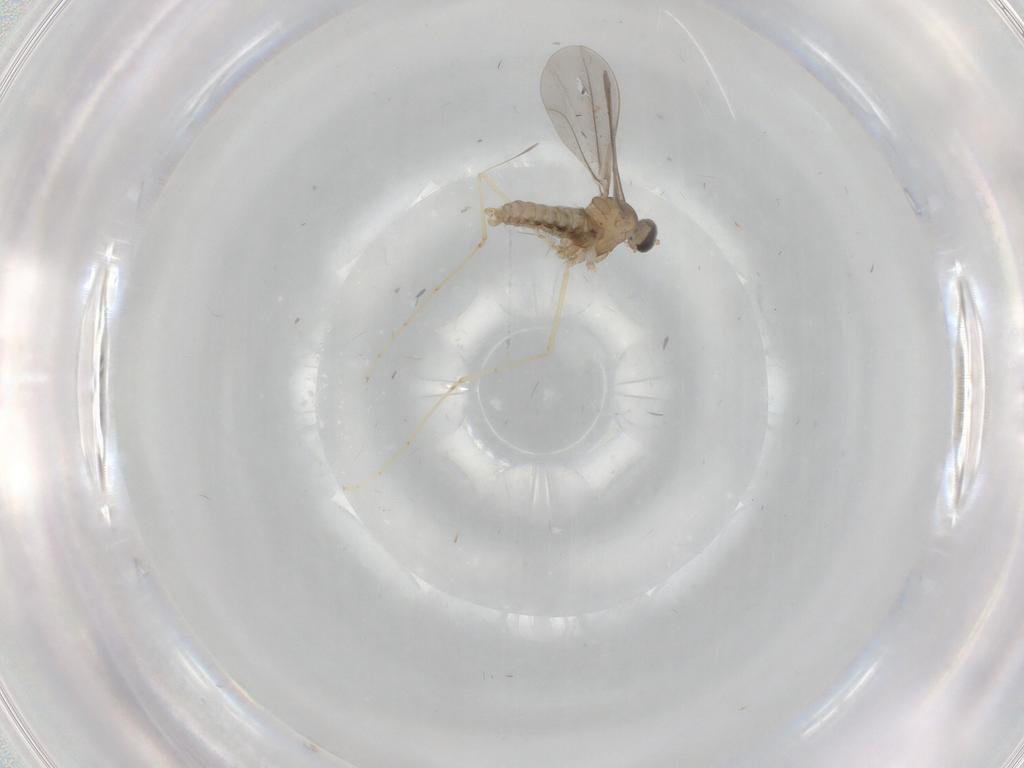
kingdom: Animalia
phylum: Arthropoda
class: Insecta
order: Diptera
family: Cecidomyiidae
